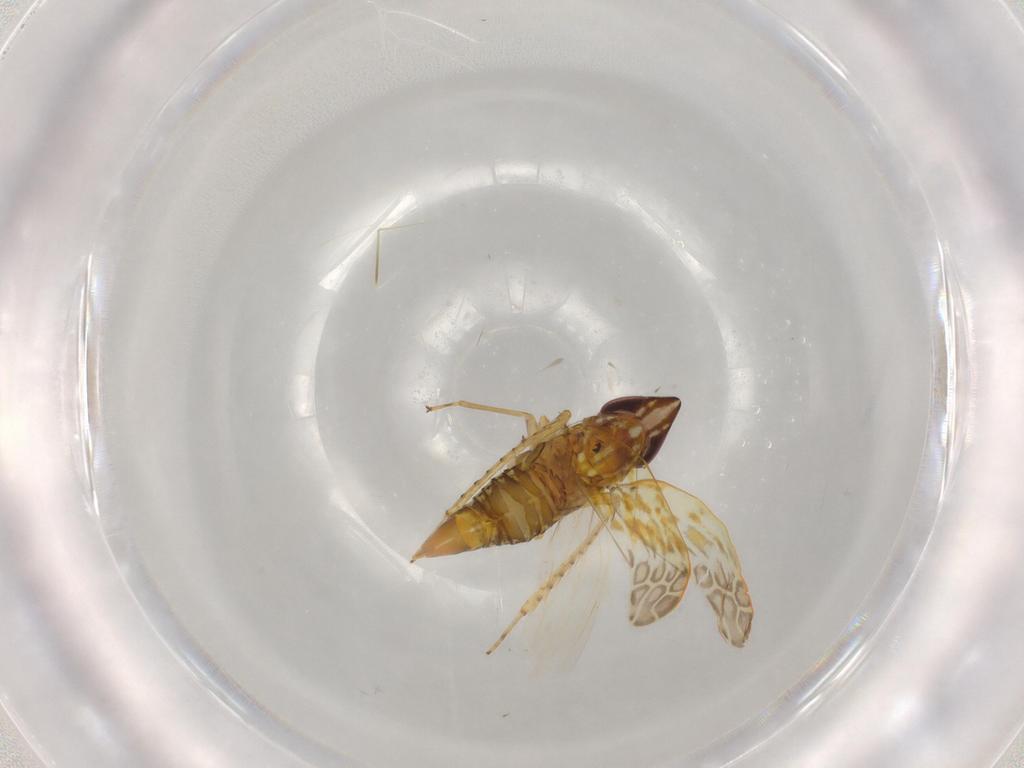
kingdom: Animalia
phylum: Arthropoda
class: Insecta
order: Hemiptera
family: Cicadellidae
